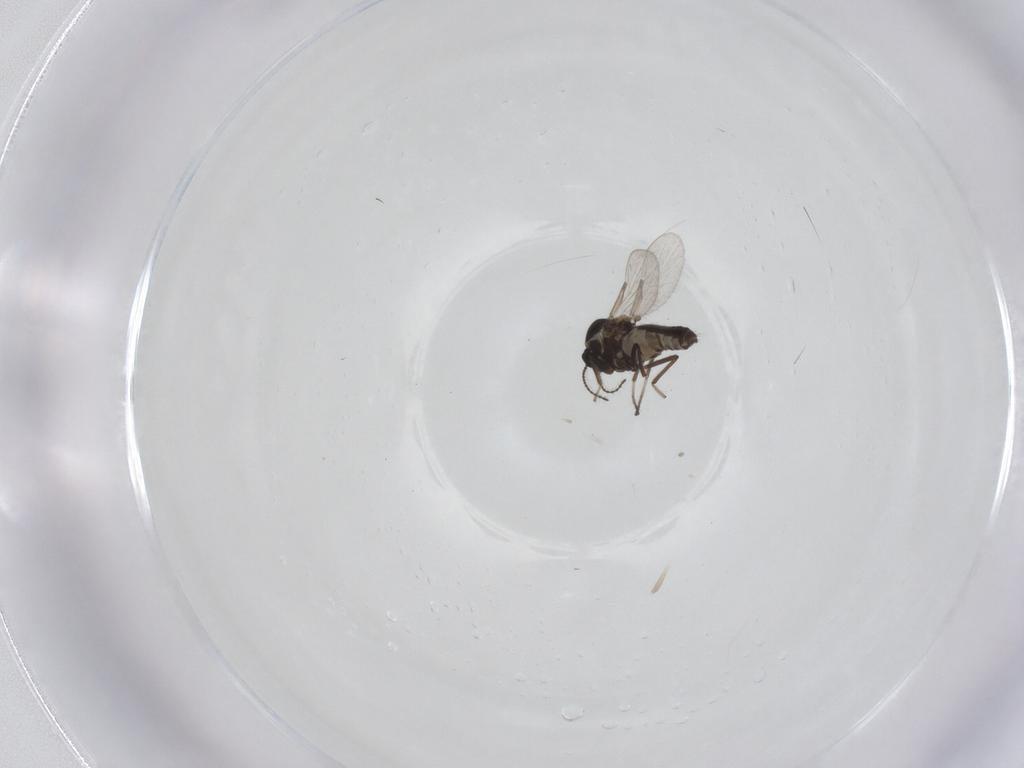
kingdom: Animalia
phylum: Arthropoda
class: Insecta
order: Diptera
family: Ceratopogonidae
